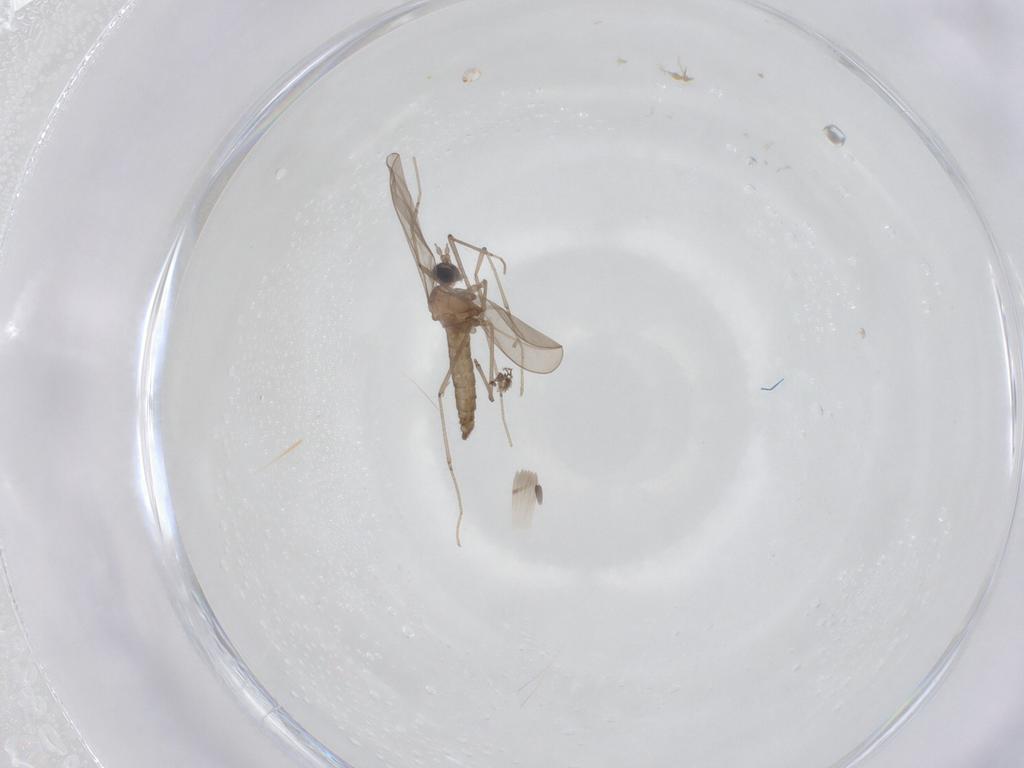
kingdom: Animalia
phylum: Arthropoda
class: Insecta
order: Diptera
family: Cecidomyiidae
